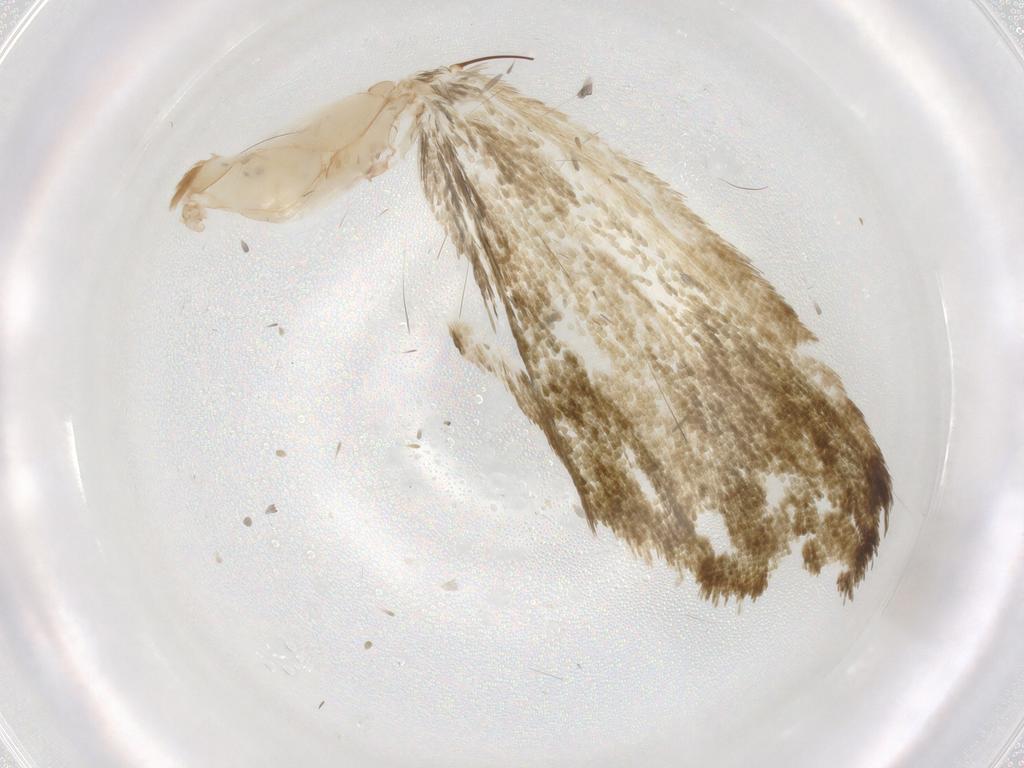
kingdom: Animalia
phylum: Arthropoda
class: Insecta
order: Lepidoptera
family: Geometridae
